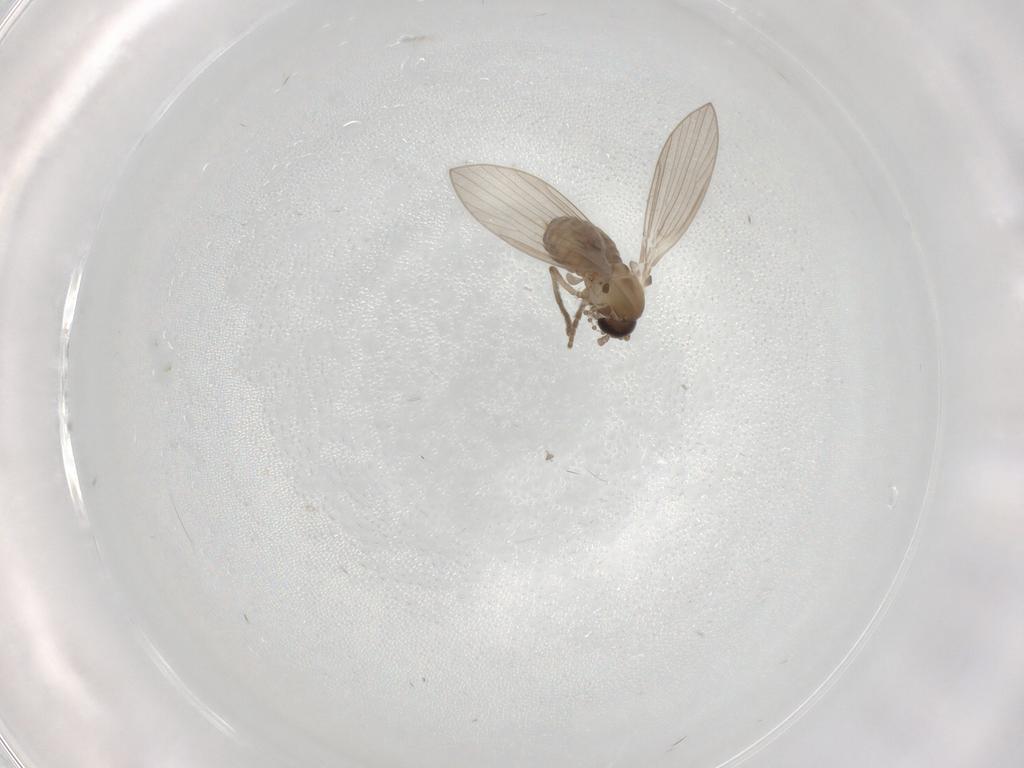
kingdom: Animalia
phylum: Arthropoda
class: Insecta
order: Diptera
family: Psychodidae
